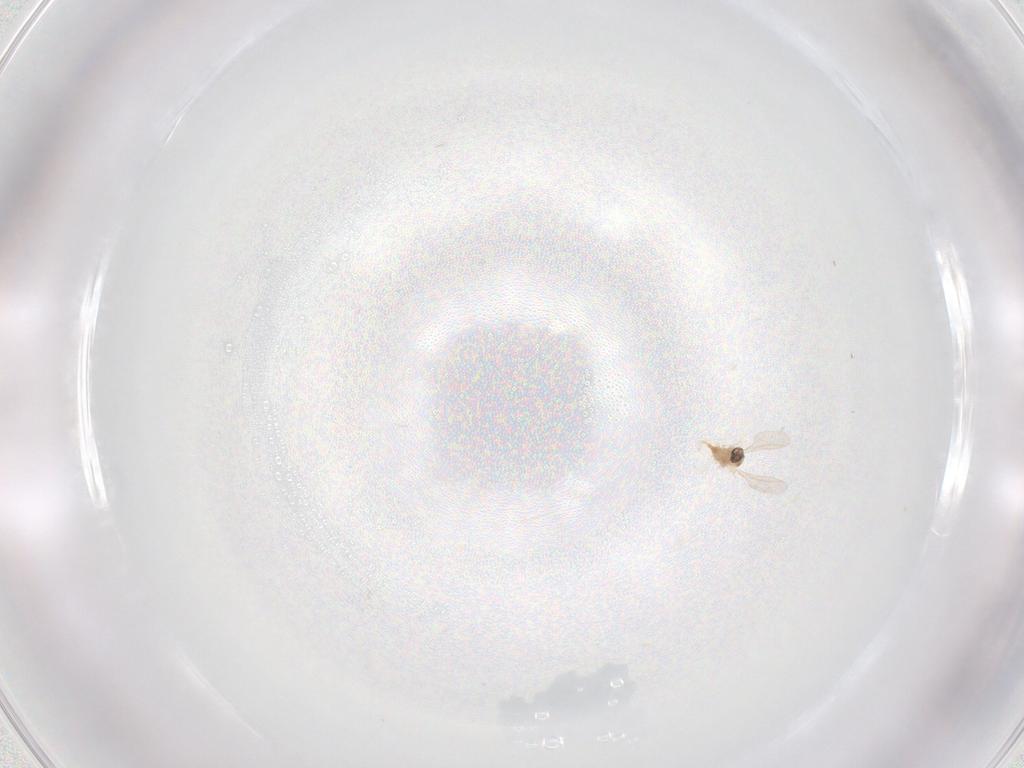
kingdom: Animalia
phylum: Arthropoda
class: Insecta
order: Diptera
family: Cecidomyiidae
